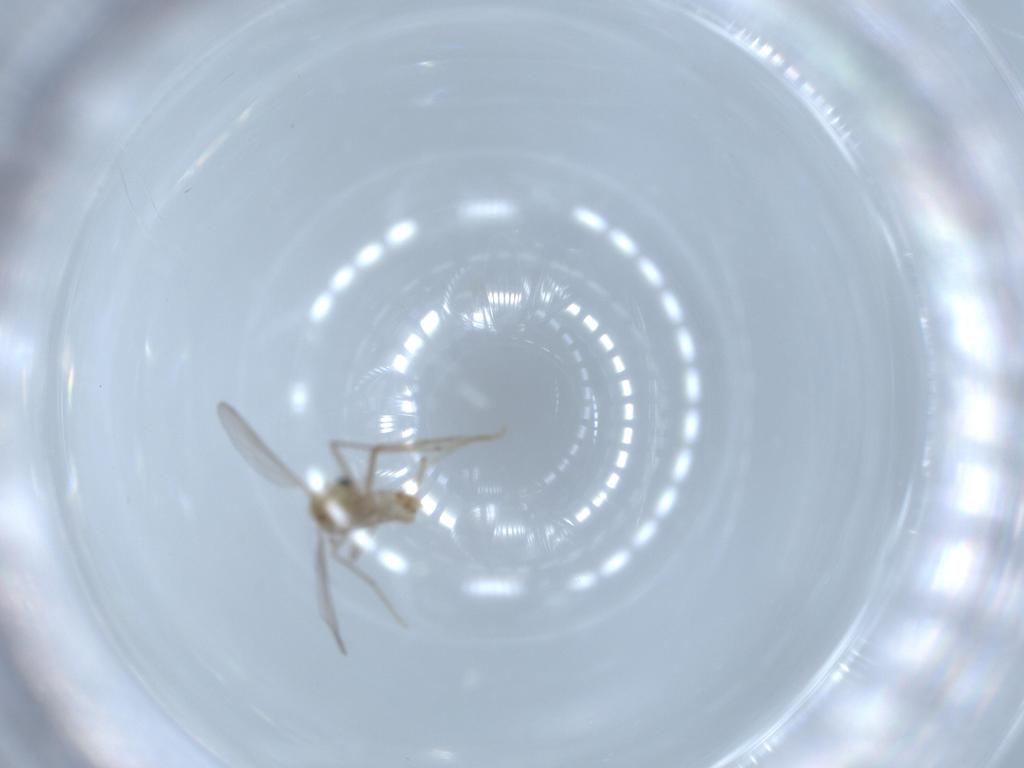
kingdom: Animalia
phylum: Arthropoda
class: Insecta
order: Diptera
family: Chironomidae
